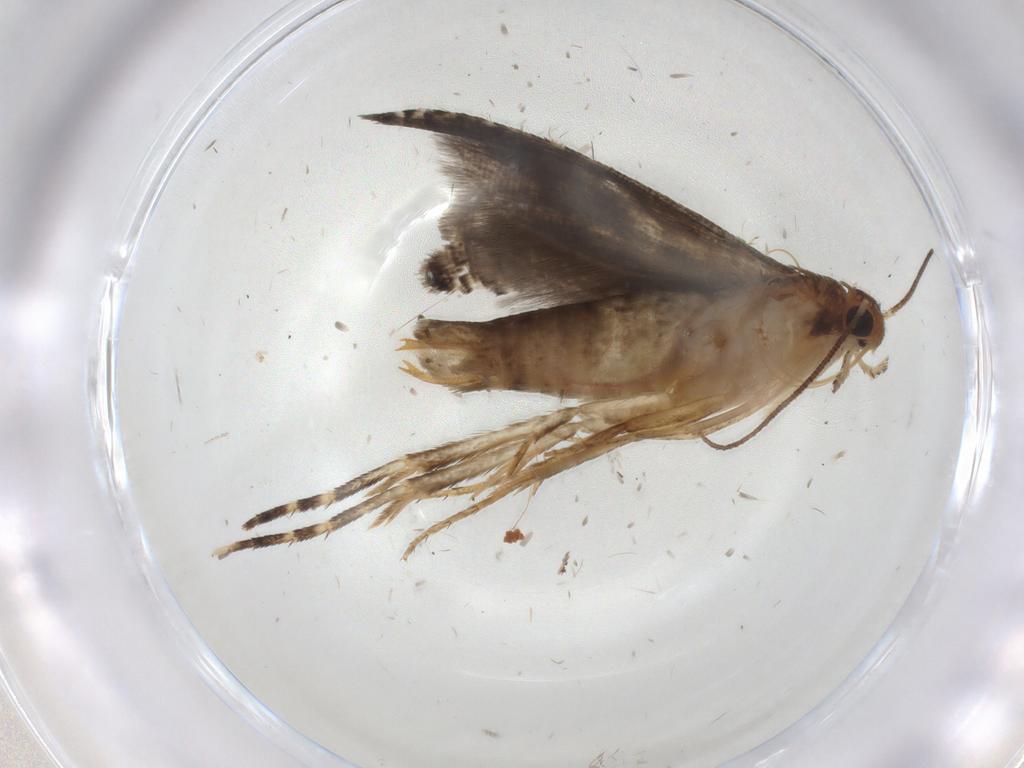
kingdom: Animalia
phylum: Arthropoda
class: Insecta
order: Lepidoptera
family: Glyphipterigidae
